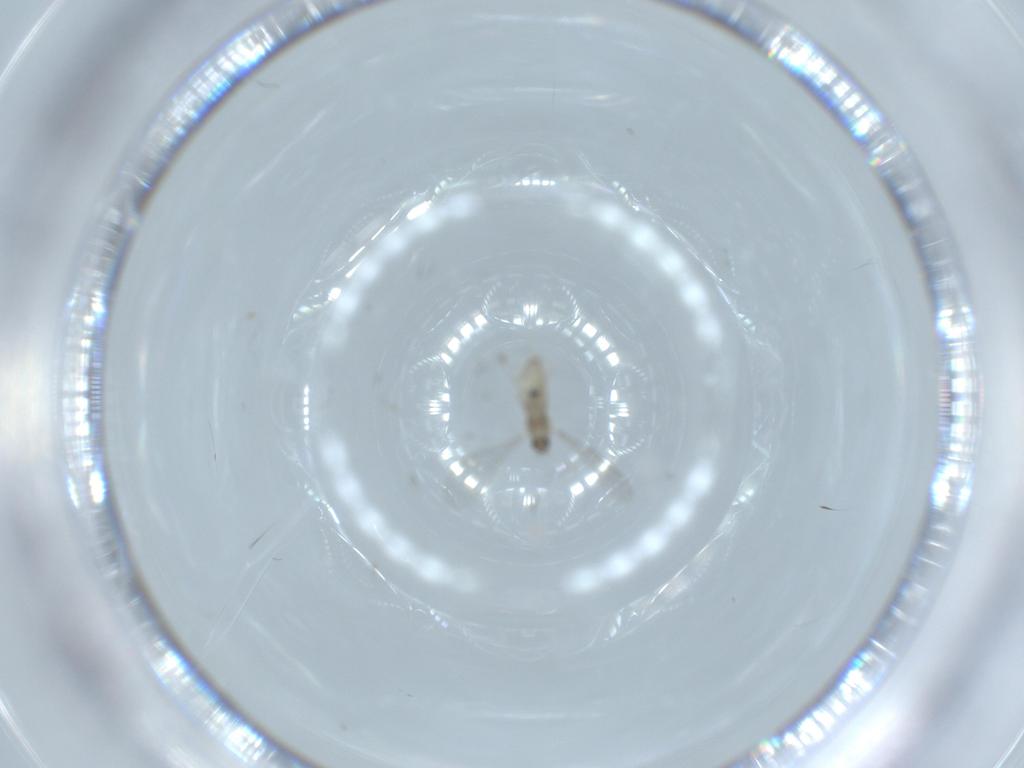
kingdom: Animalia
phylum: Arthropoda
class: Insecta
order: Diptera
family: Cecidomyiidae
